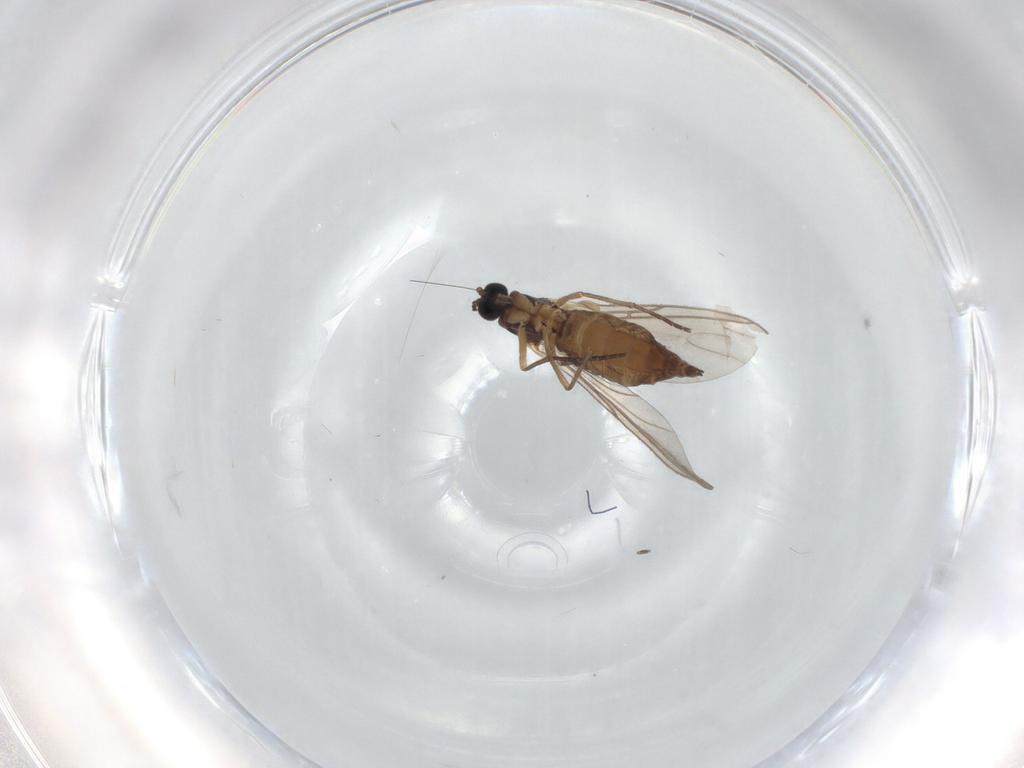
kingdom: Animalia
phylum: Arthropoda
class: Insecta
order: Diptera
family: Sciaridae
